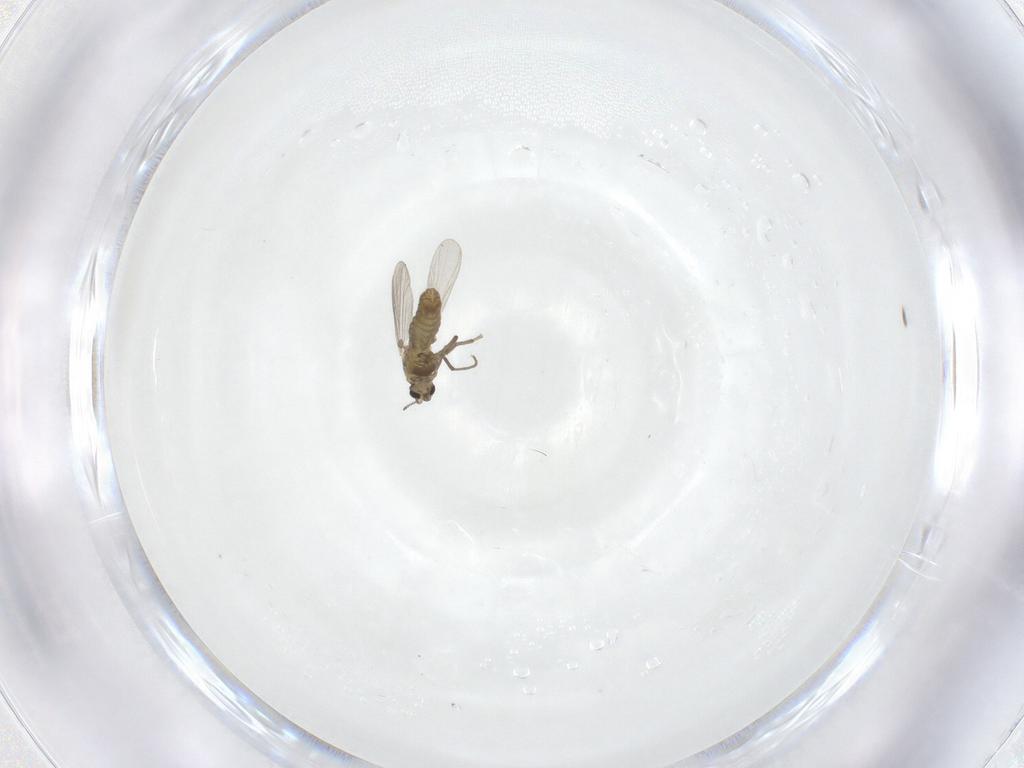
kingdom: Animalia
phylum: Arthropoda
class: Insecta
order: Diptera
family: Chironomidae
